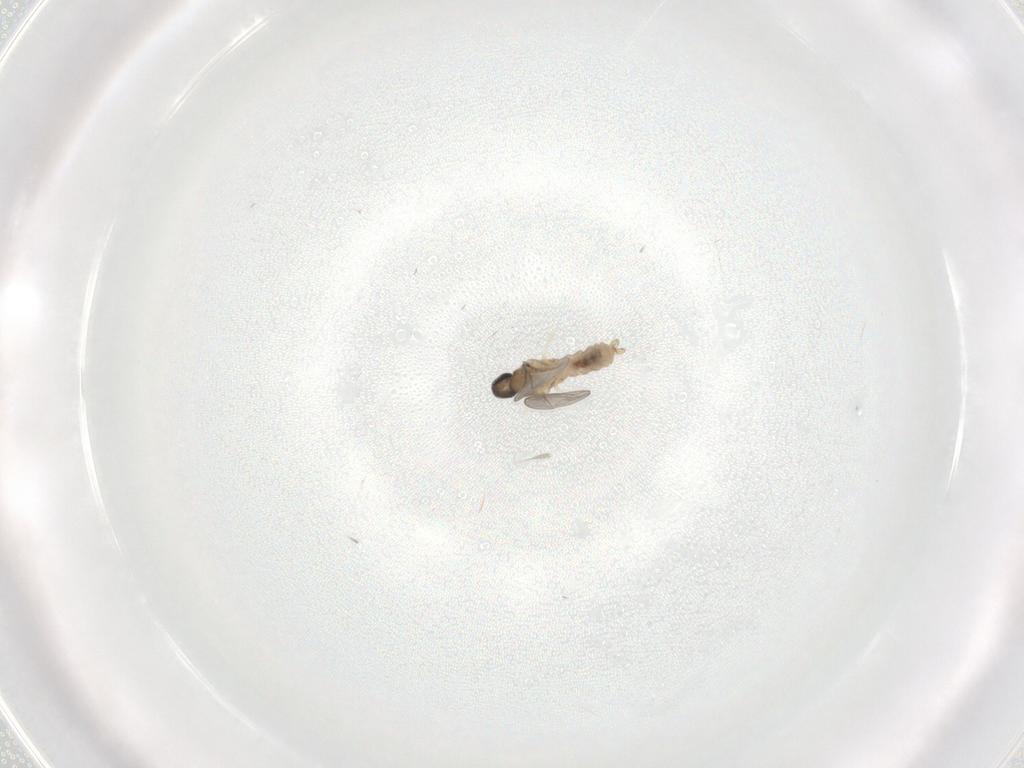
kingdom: Animalia
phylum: Arthropoda
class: Insecta
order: Diptera
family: Cecidomyiidae
